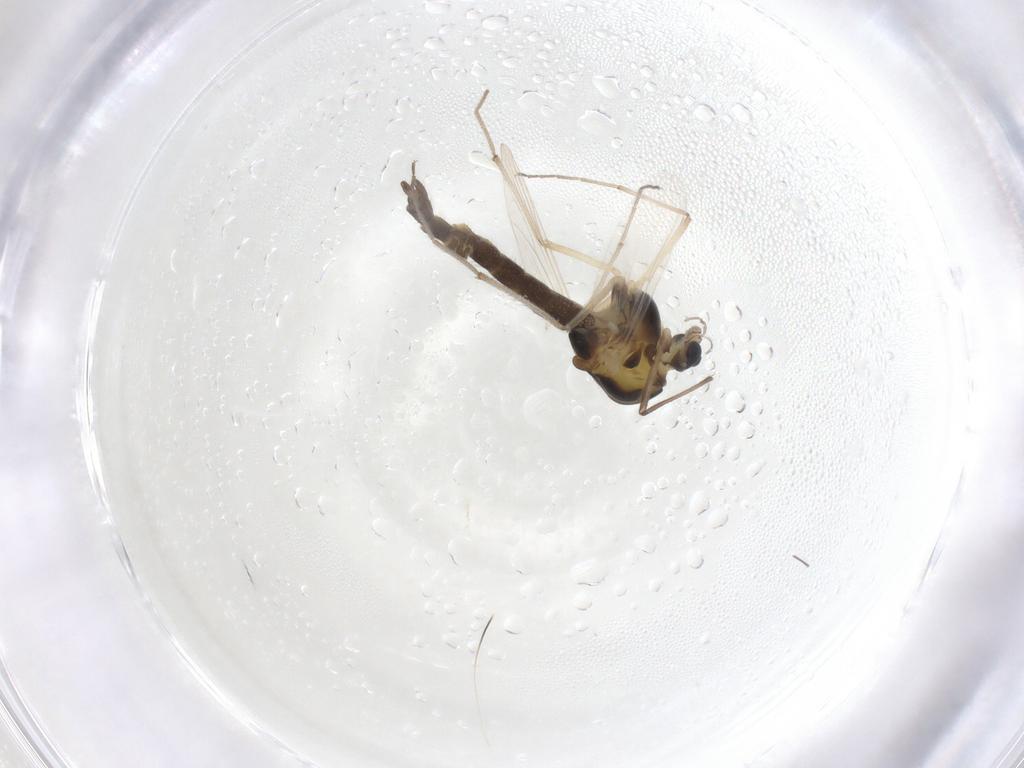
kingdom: Animalia
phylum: Arthropoda
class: Insecta
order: Diptera
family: Chironomidae
